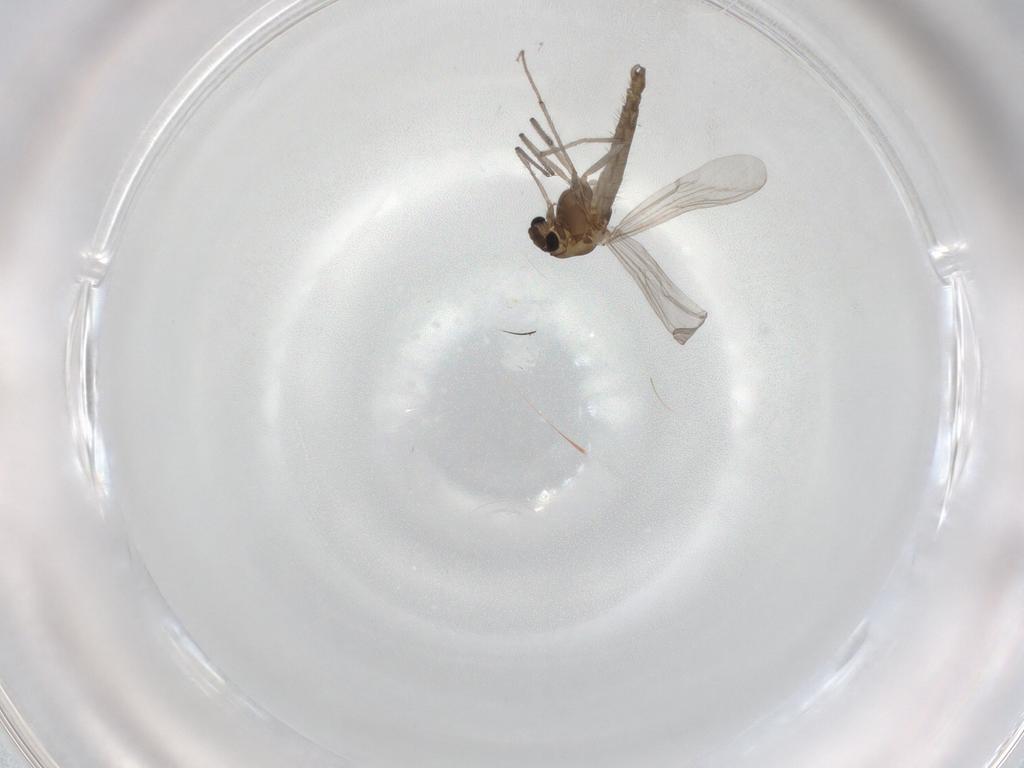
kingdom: Animalia
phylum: Arthropoda
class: Insecta
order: Diptera
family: Chironomidae
